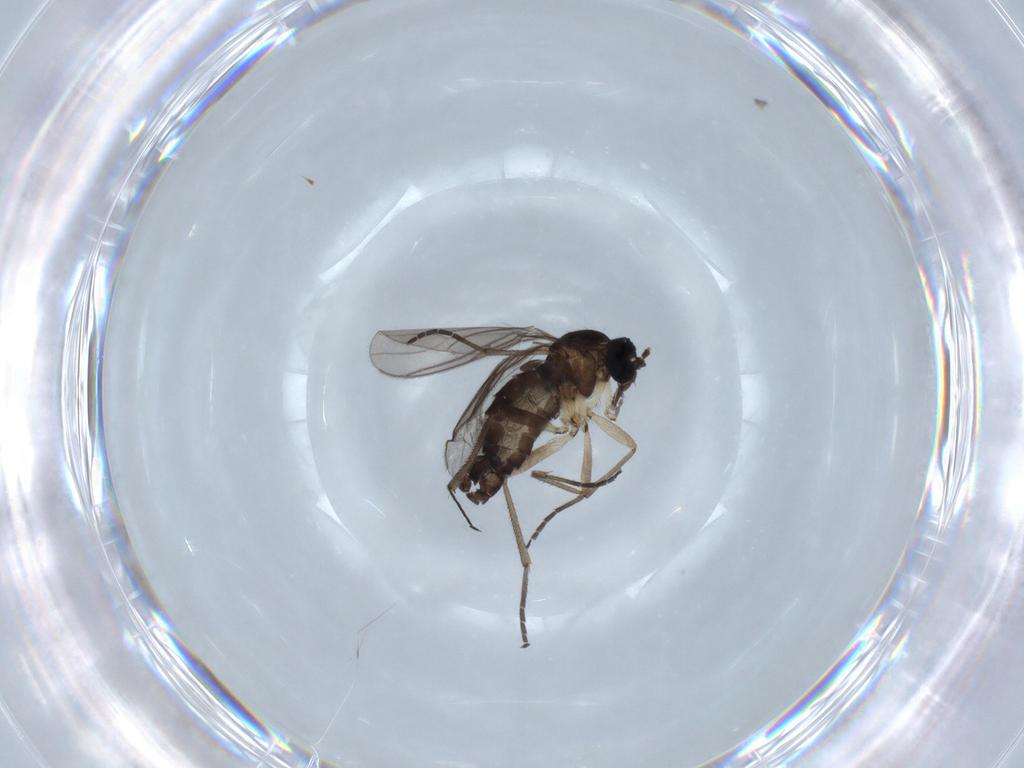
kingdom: Animalia
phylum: Arthropoda
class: Insecta
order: Diptera
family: Sciaridae
